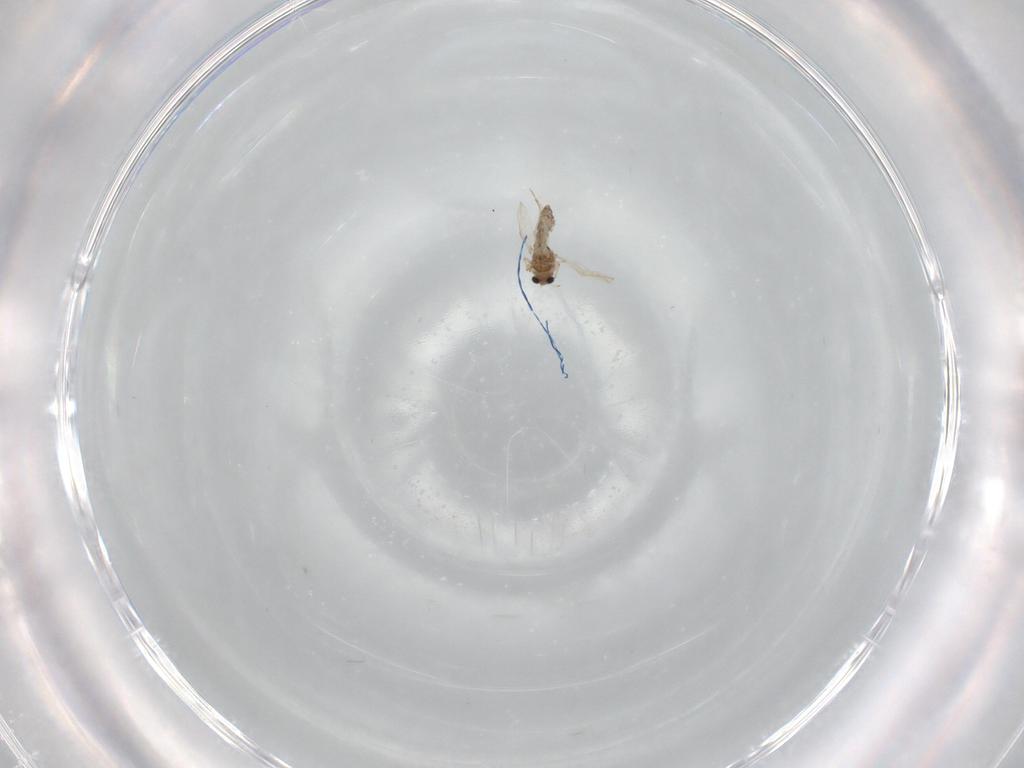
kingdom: Animalia
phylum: Arthropoda
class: Insecta
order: Diptera
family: Chironomidae
